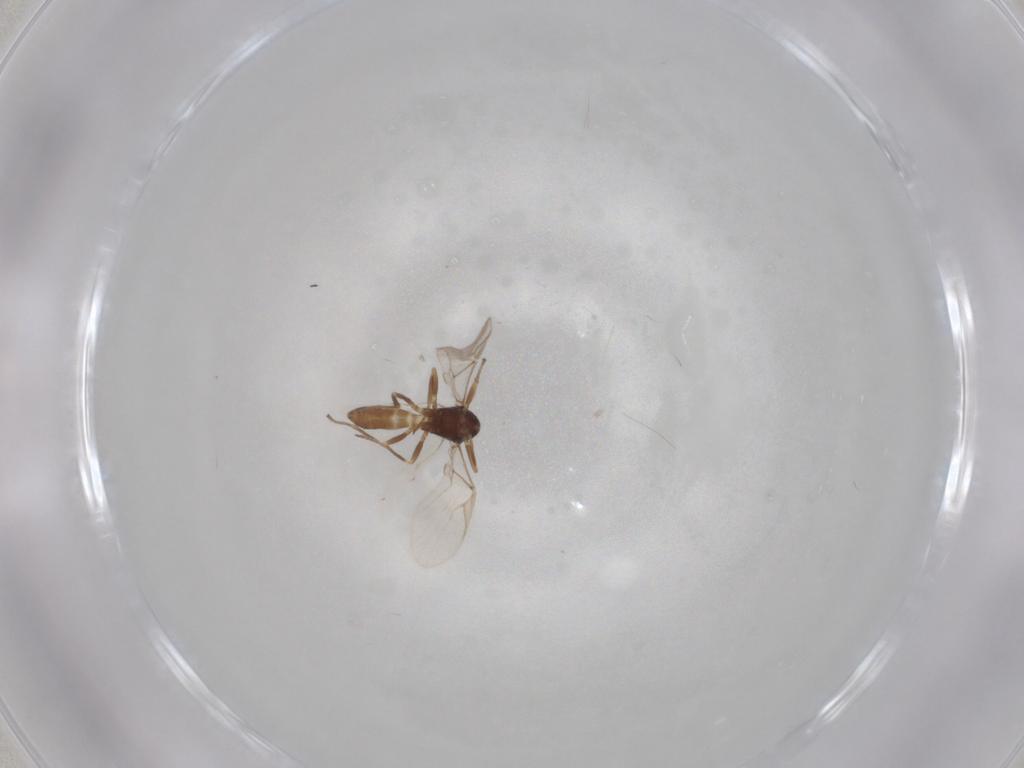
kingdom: Animalia
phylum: Arthropoda
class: Insecta
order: Hymenoptera
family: Braconidae
